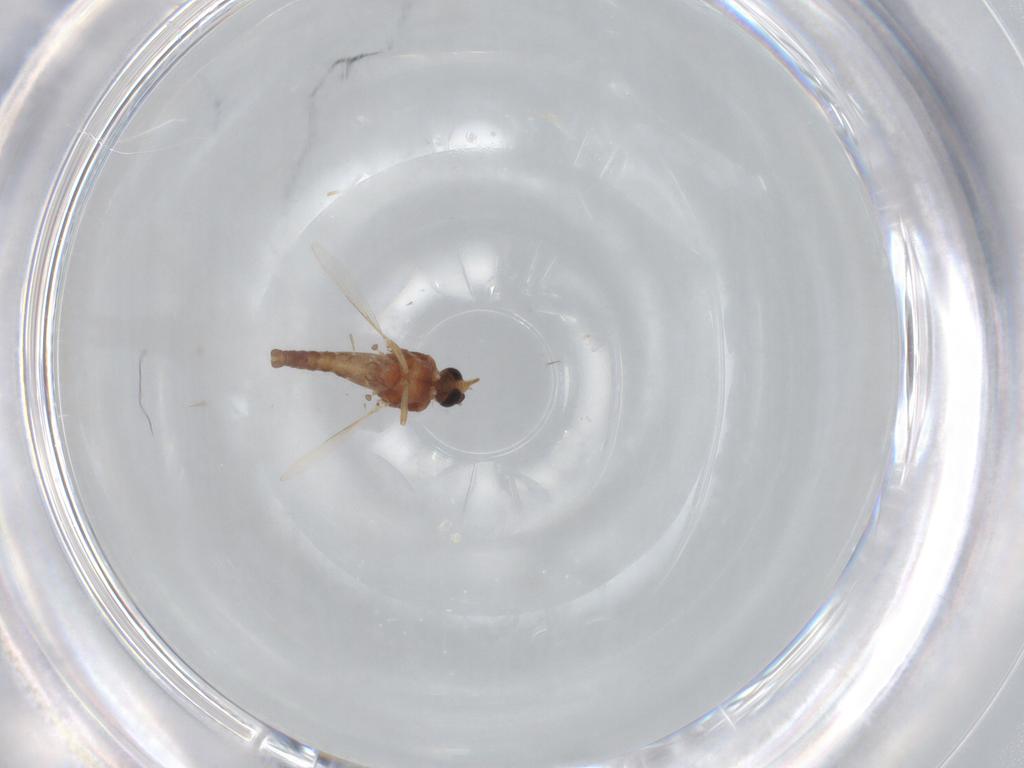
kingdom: Animalia
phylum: Arthropoda
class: Insecta
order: Diptera
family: Ceratopogonidae
